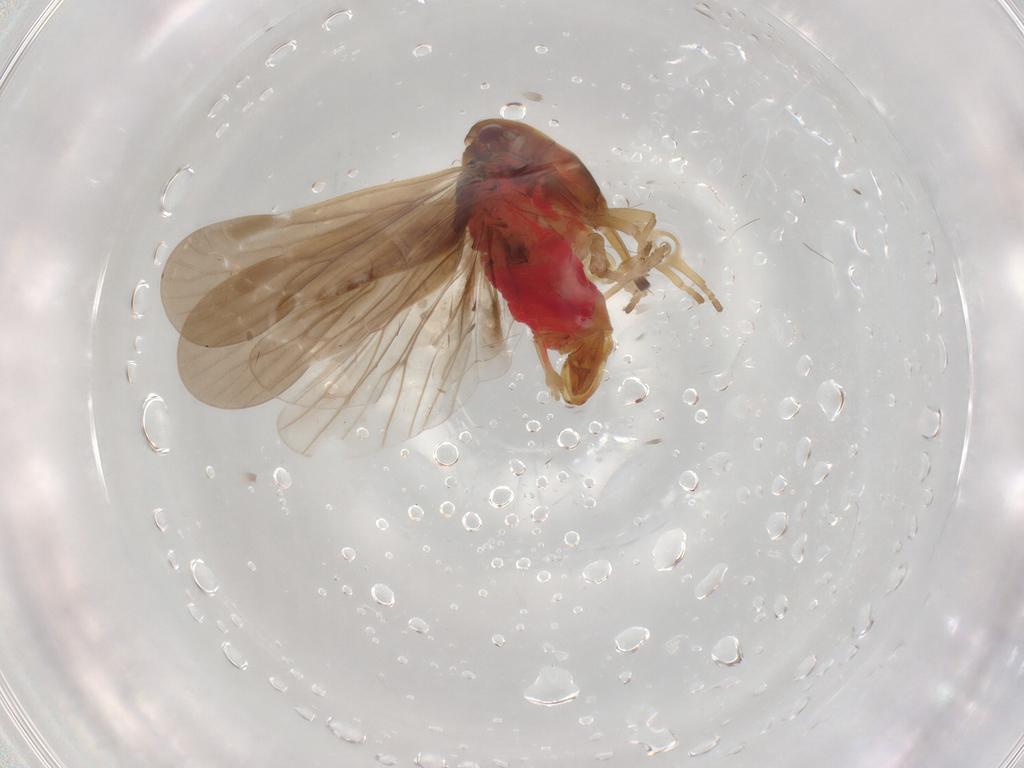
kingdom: Animalia
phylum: Arthropoda
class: Insecta
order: Hemiptera
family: Derbidae
